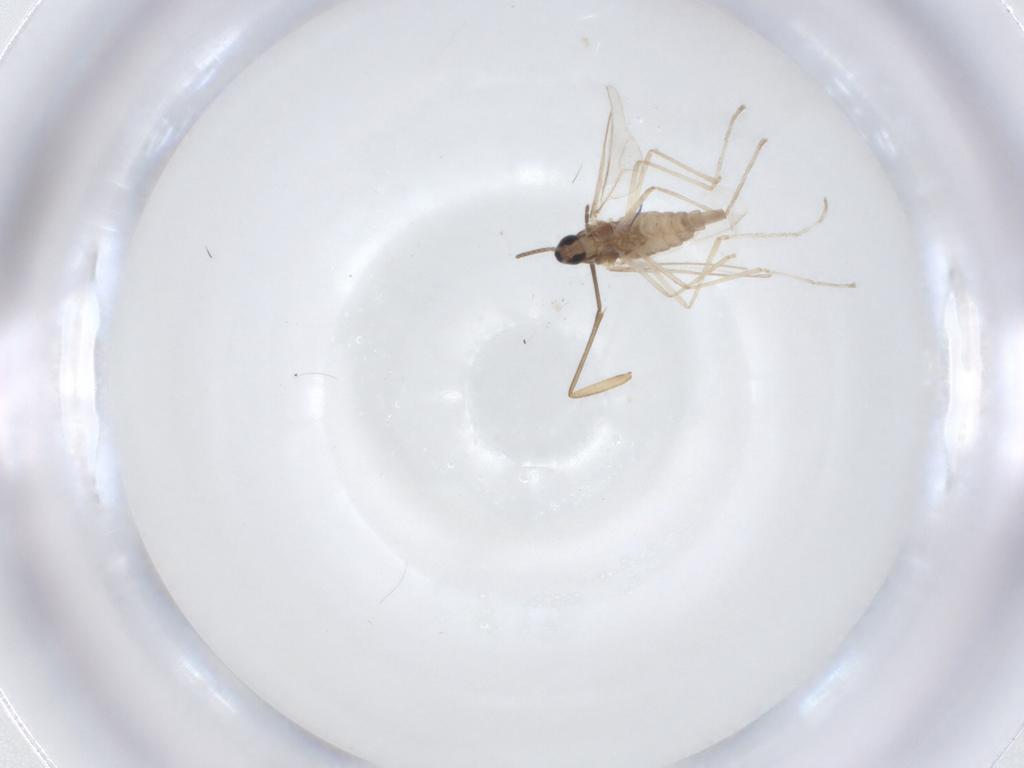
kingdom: Animalia
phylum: Arthropoda
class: Insecta
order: Diptera
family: Cecidomyiidae
